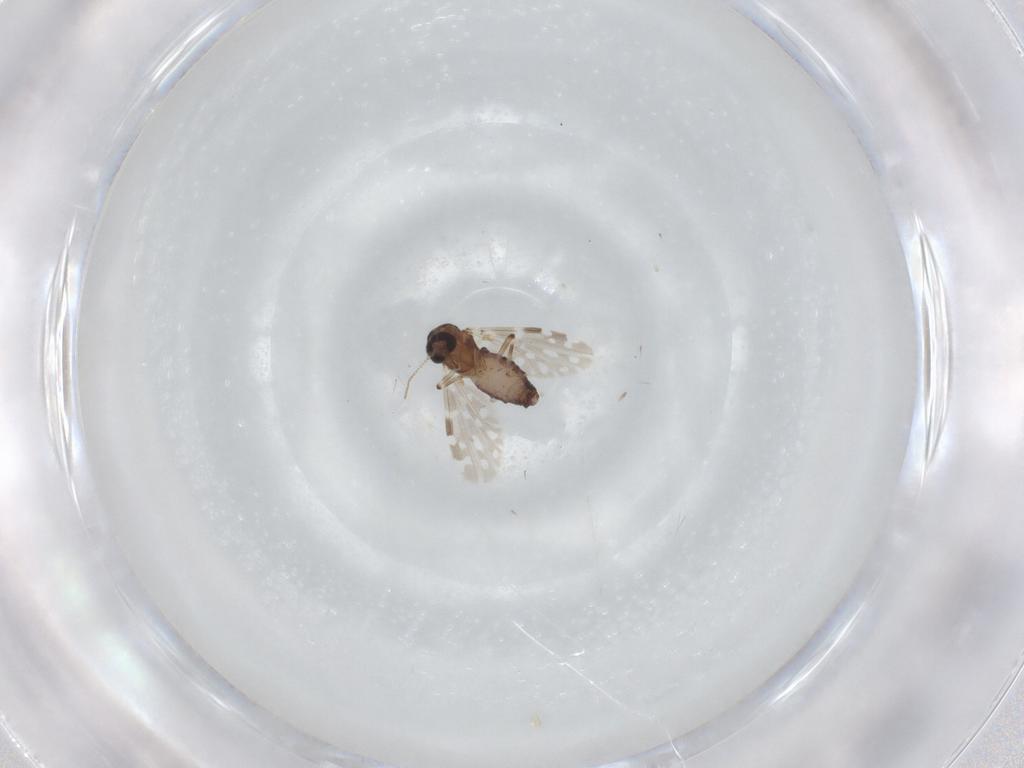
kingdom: Animalia
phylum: Arthropoda
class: Insecta
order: Diptera
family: Ceratopogonidae
